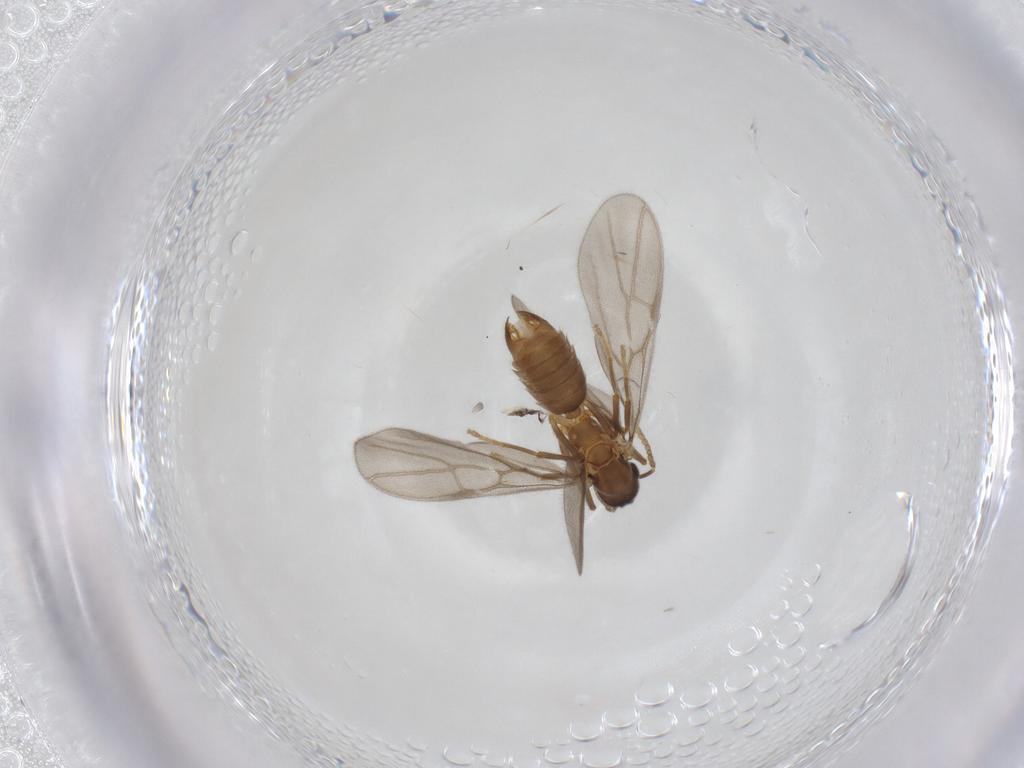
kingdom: Animalia
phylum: Arthropoda
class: Insecta
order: Hymenoptera
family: Formicidae
